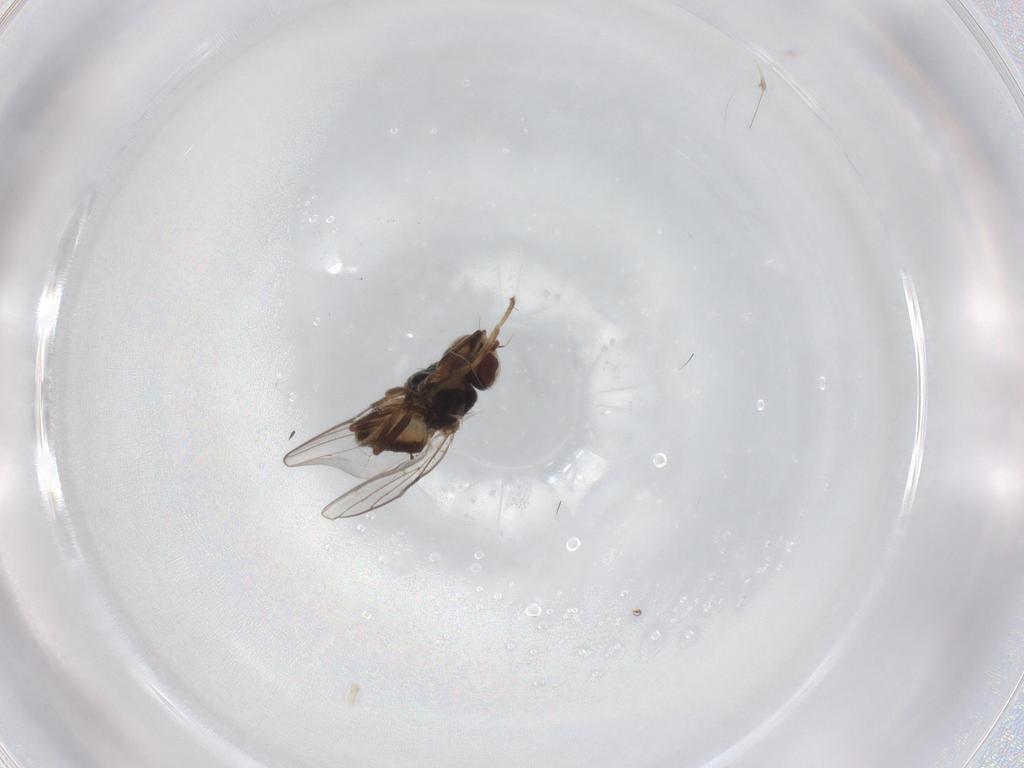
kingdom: Animalia
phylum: Arthropoda
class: Insecta
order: Diptera
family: Chloropidae
